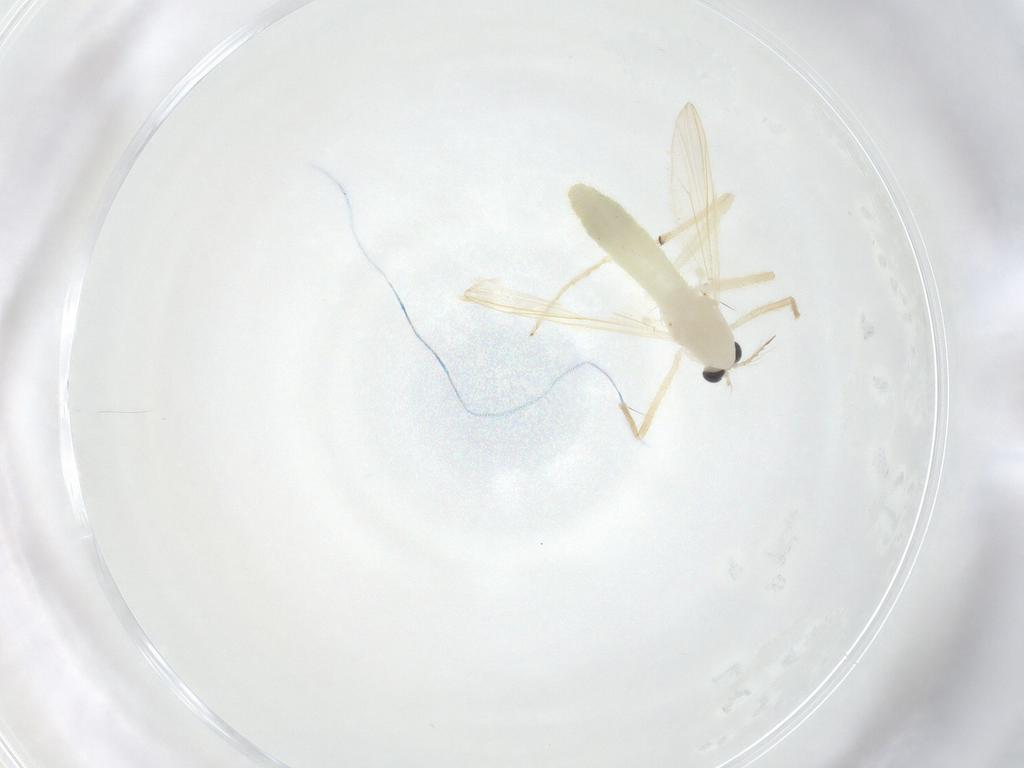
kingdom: Animalia
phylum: Arthropoda
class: Insecta
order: Diptera
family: Chironomidae
